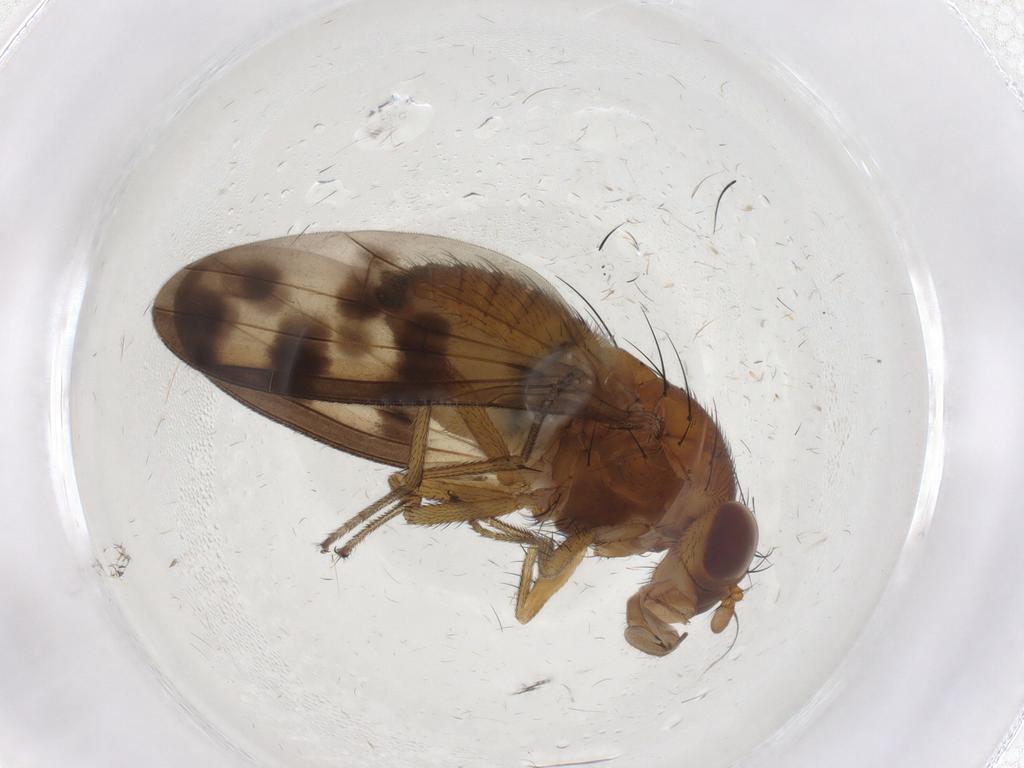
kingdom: Animalia
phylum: Arthropoda
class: Insecta
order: Diptera
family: Cecidomyiidae
